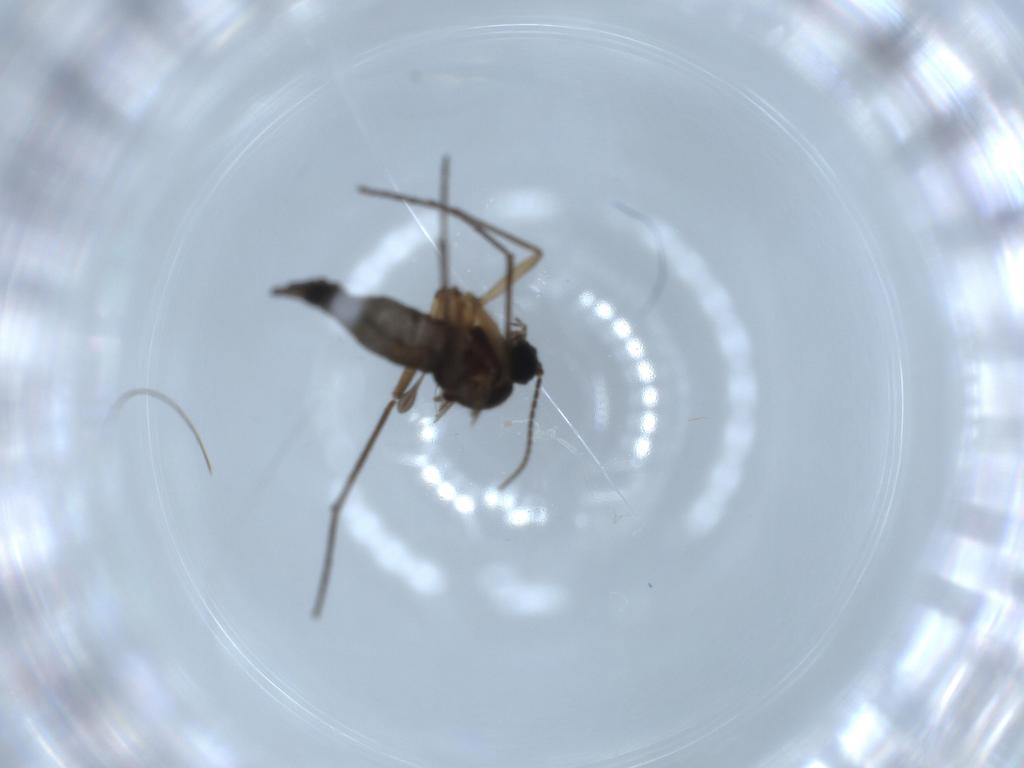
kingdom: Animalia
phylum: Arthropoda
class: Insecta
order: Diptera
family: Sciaridae
